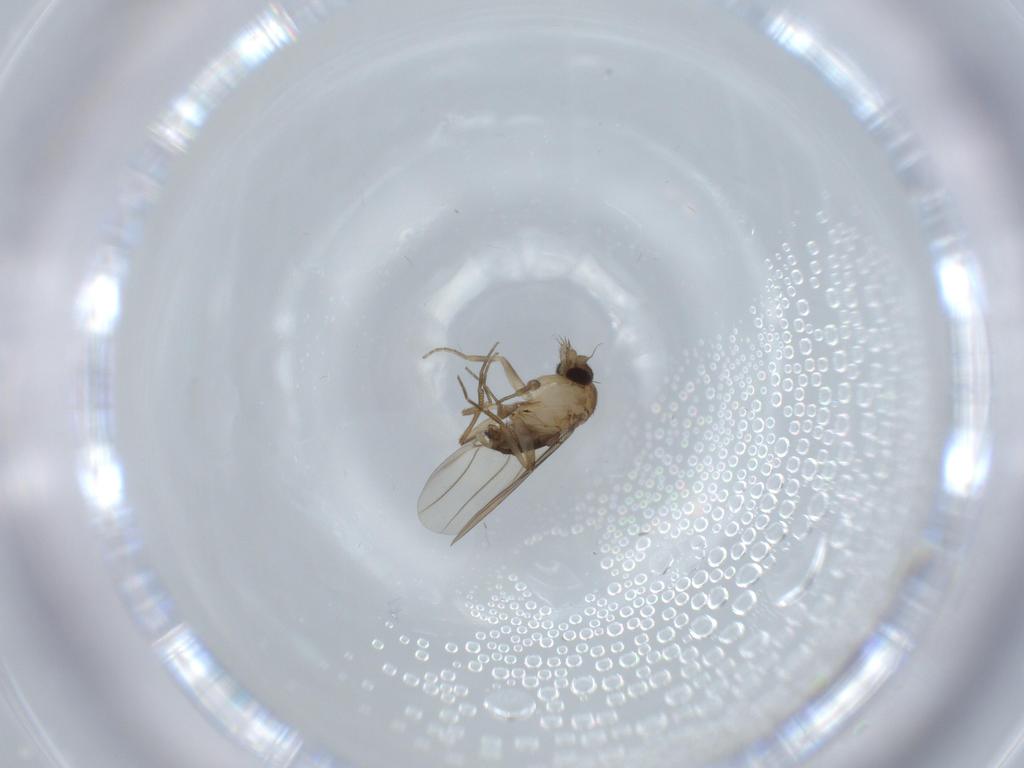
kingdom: Animalia
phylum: Arthropoda
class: Insecta
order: Diptera
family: Phoridae
